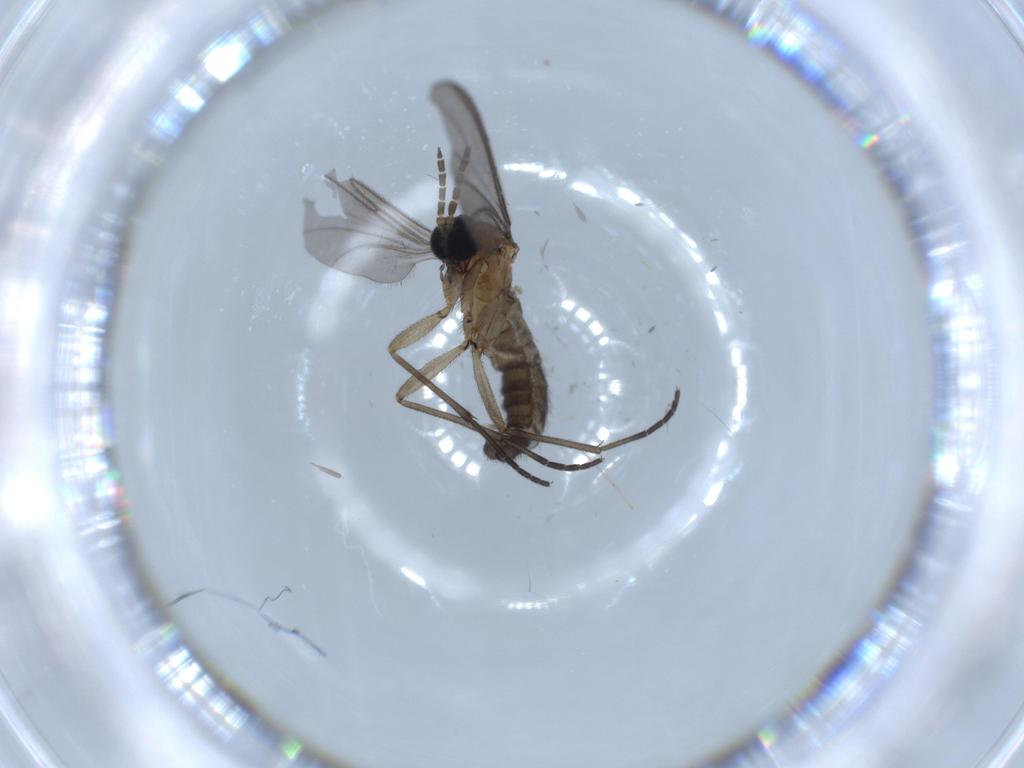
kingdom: Animalia
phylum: Arthropoda
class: Insecta
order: Diptera
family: Sciaridae
